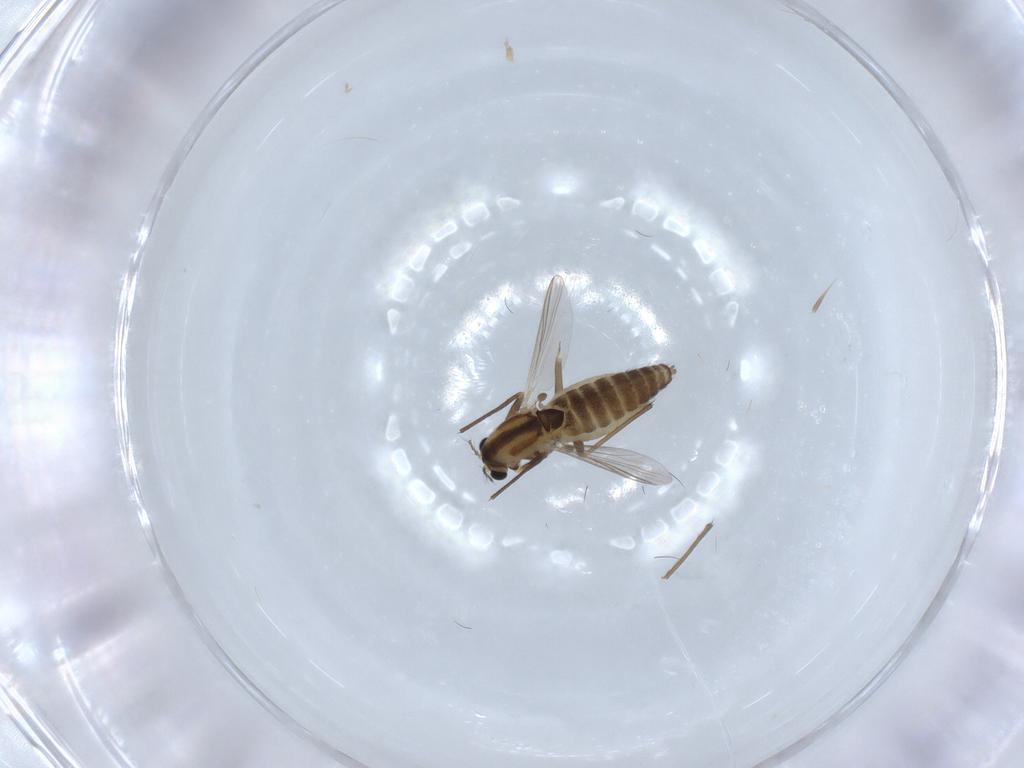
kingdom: Animalia
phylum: Arthropoda
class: Insecta
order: Diptera
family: Chironomidae
